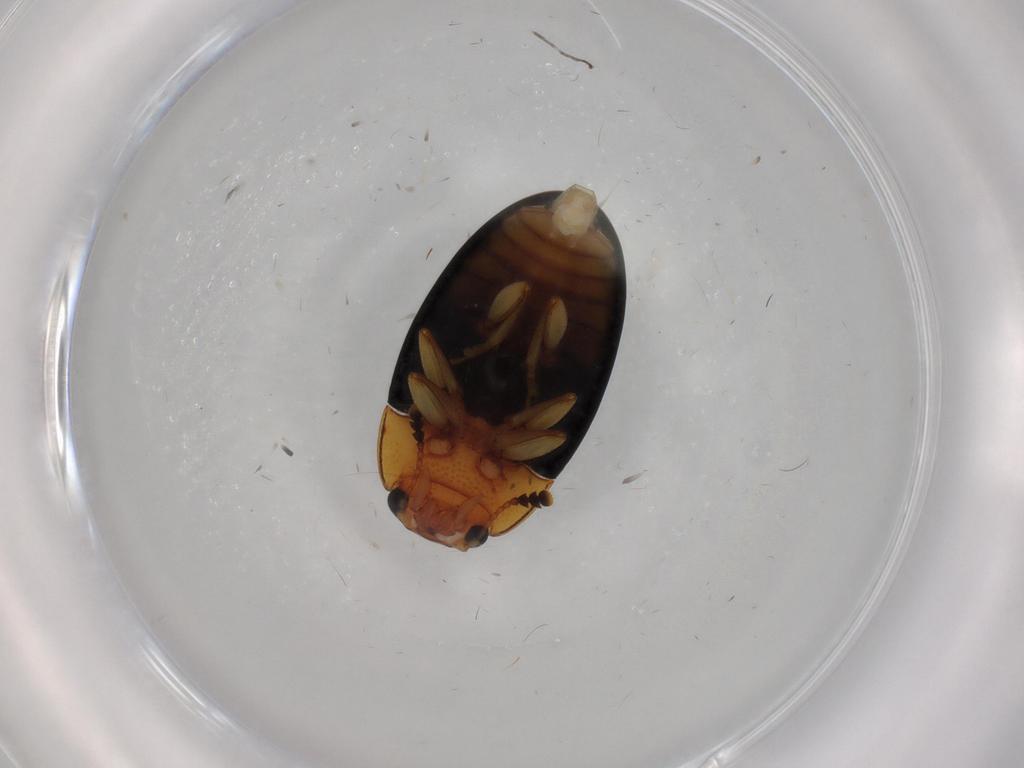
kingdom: Animalia
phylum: Arthropoda
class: Insecta
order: Coleoptera
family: Erotylidae
